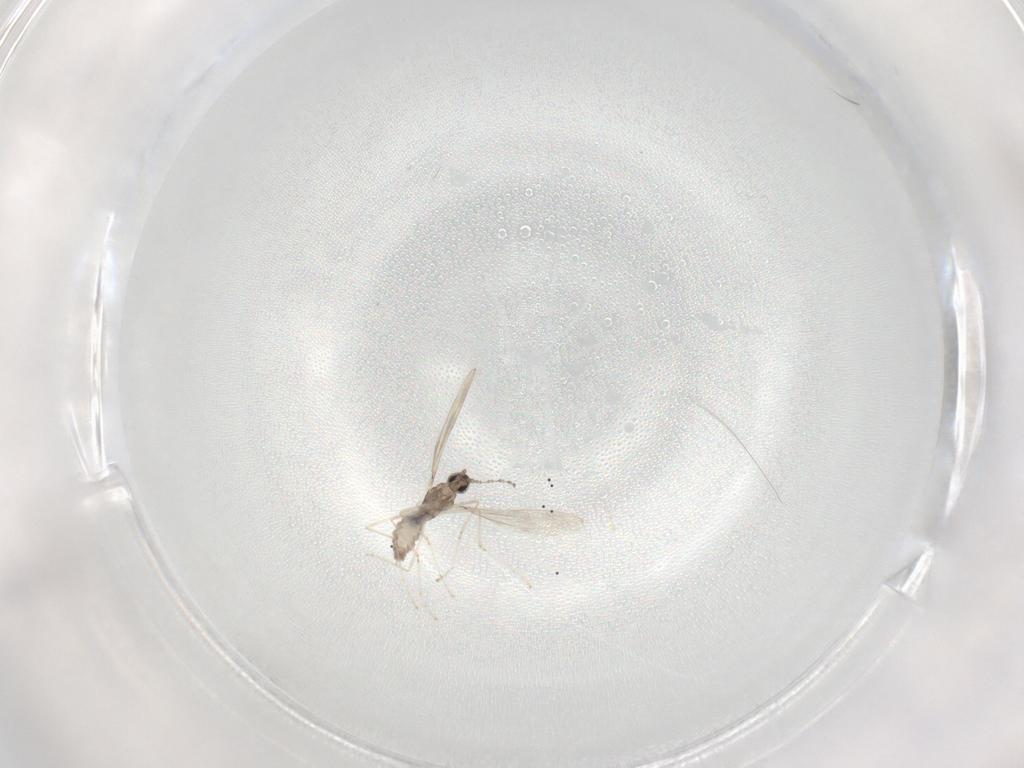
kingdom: Animalia
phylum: Arthropoda
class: Insecta
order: Diptera
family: Cecidomyiidae
